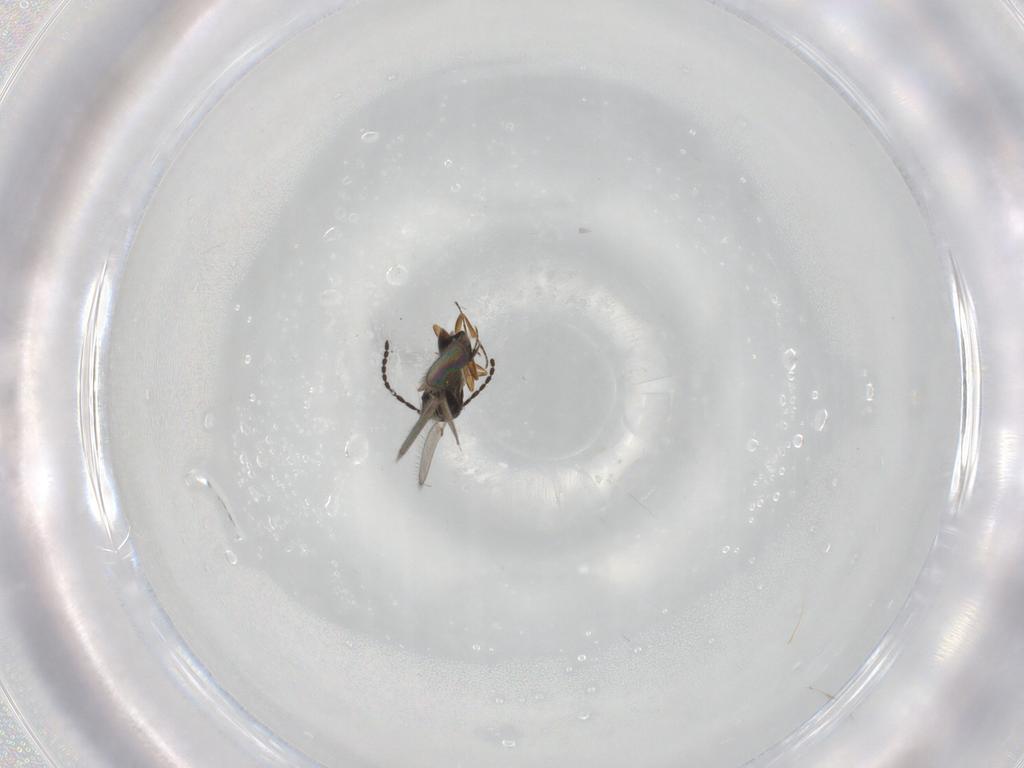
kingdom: Animalia
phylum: Arthropoda
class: Insecta
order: Hymenoptera
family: Scelionidae
